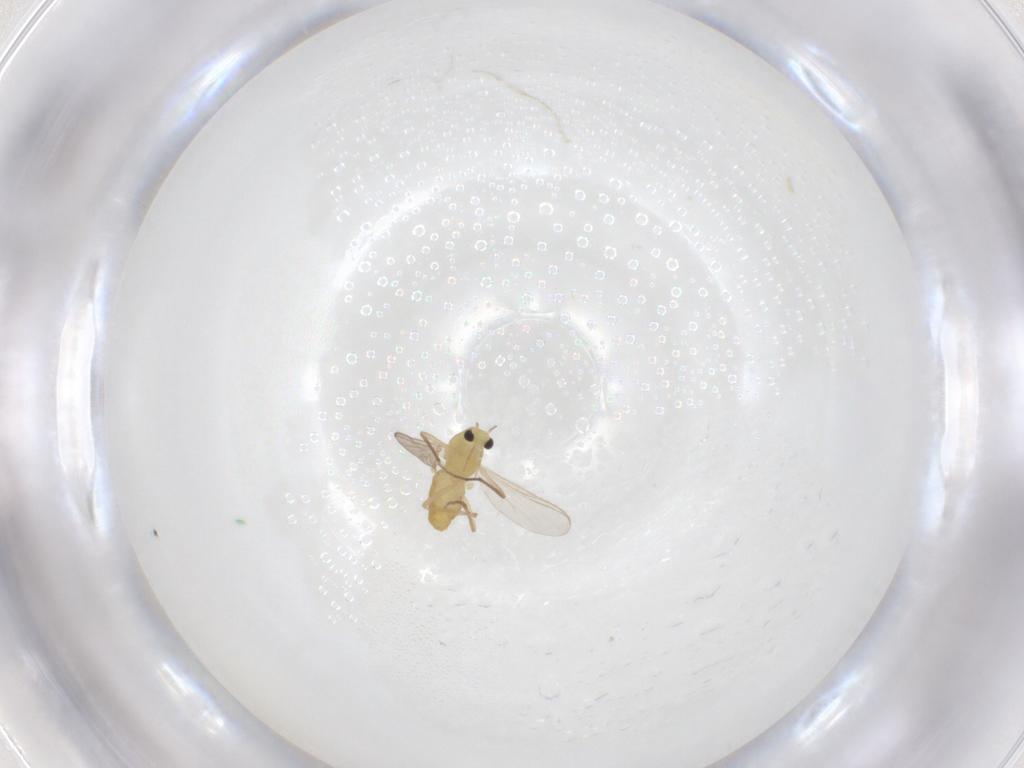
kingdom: Animalia
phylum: Arthropoda
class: Insecta
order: Diptera
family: Chironomidae
